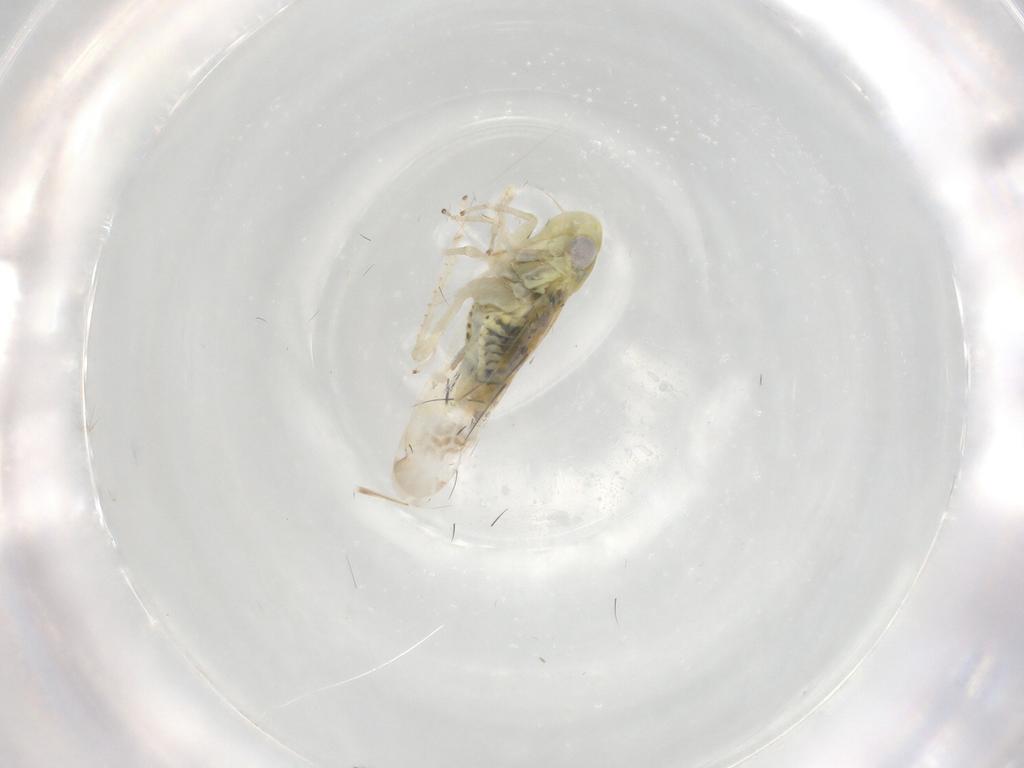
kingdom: Animalia
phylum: Arthropoda
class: Insecta
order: Hemiptera
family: Cicadellidae
